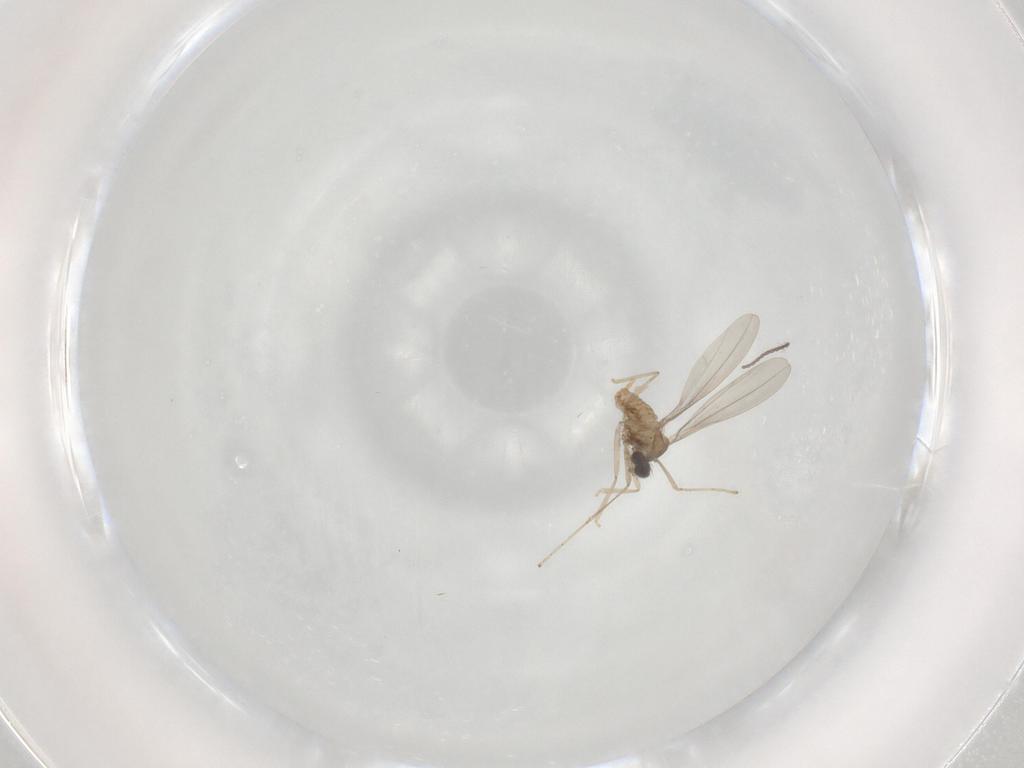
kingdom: Animalia
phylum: Arthropoda
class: Insecta
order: Diptera
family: Cecidomyiidae
